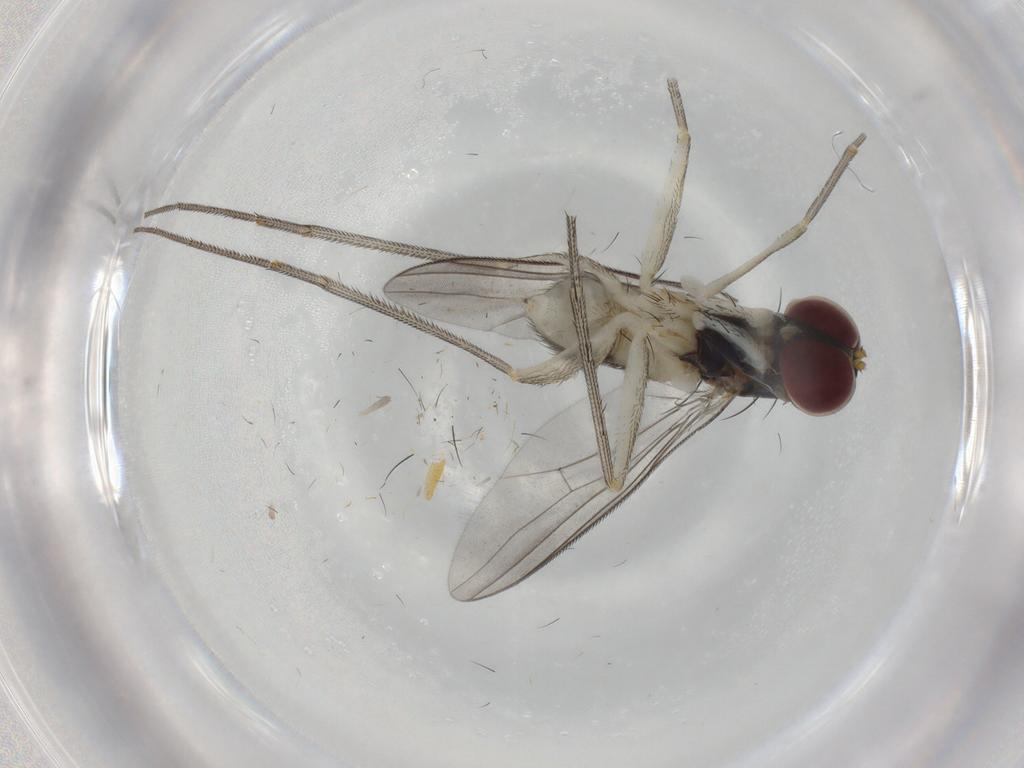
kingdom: Animalia
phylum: Arthropoda
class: Insecta
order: Diptera
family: Dolichopodidae
